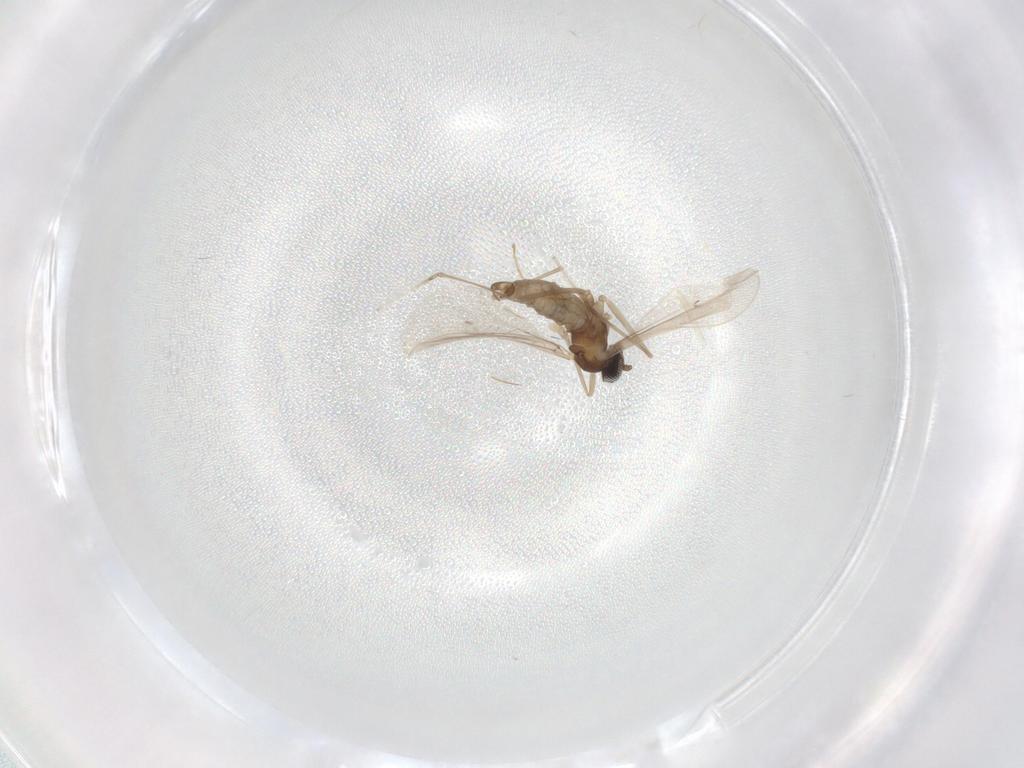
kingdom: Animalia
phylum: Arthropoda
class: Insecta
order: Diptera
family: Cecidomyiidae
